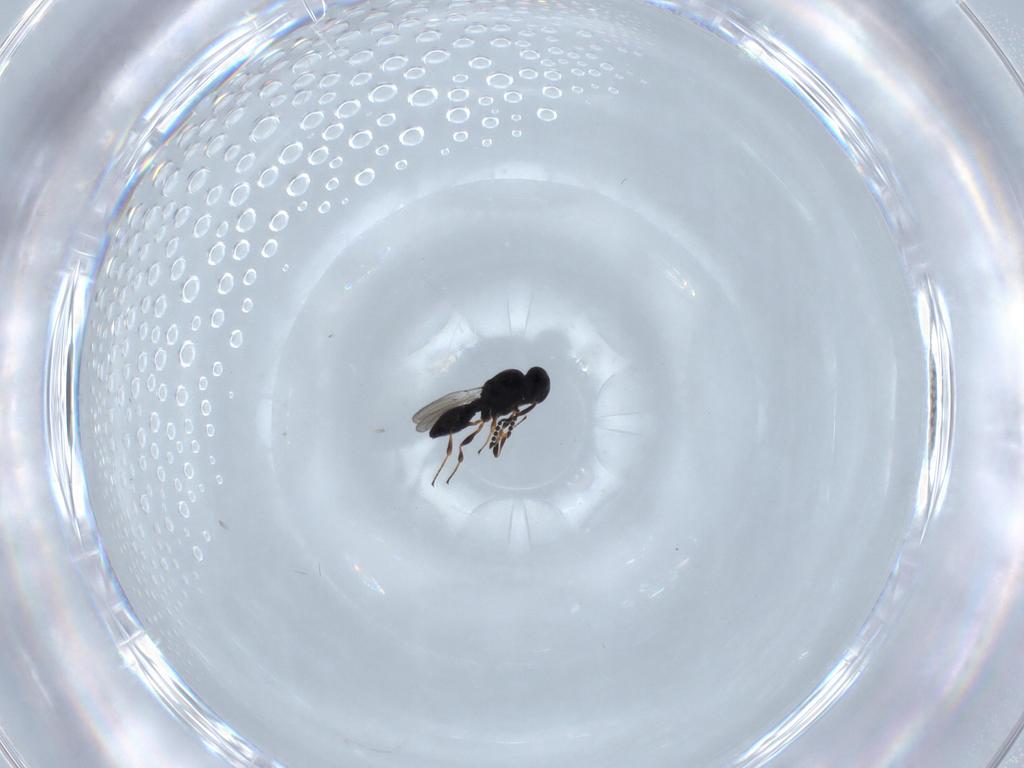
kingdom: Animalia
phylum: Arthropoda
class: Insecta
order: Hymenoptera
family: Platygastridae
